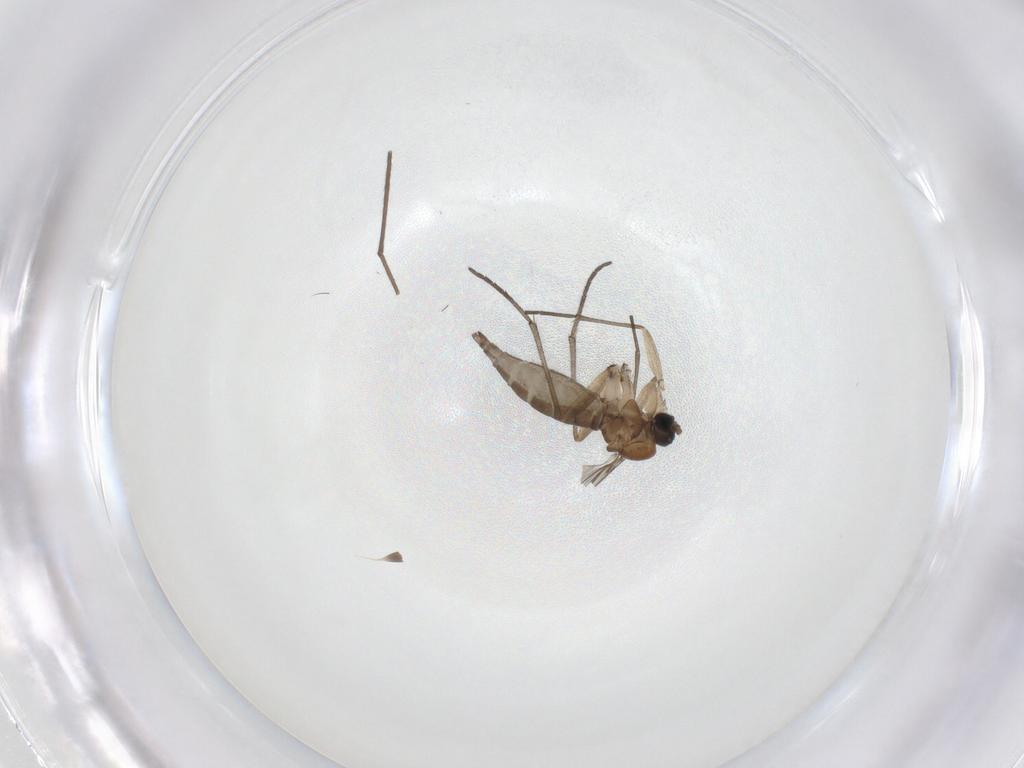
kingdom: Animalia
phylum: Arthropoda
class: Insecta
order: Diptera
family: Sciaridae
